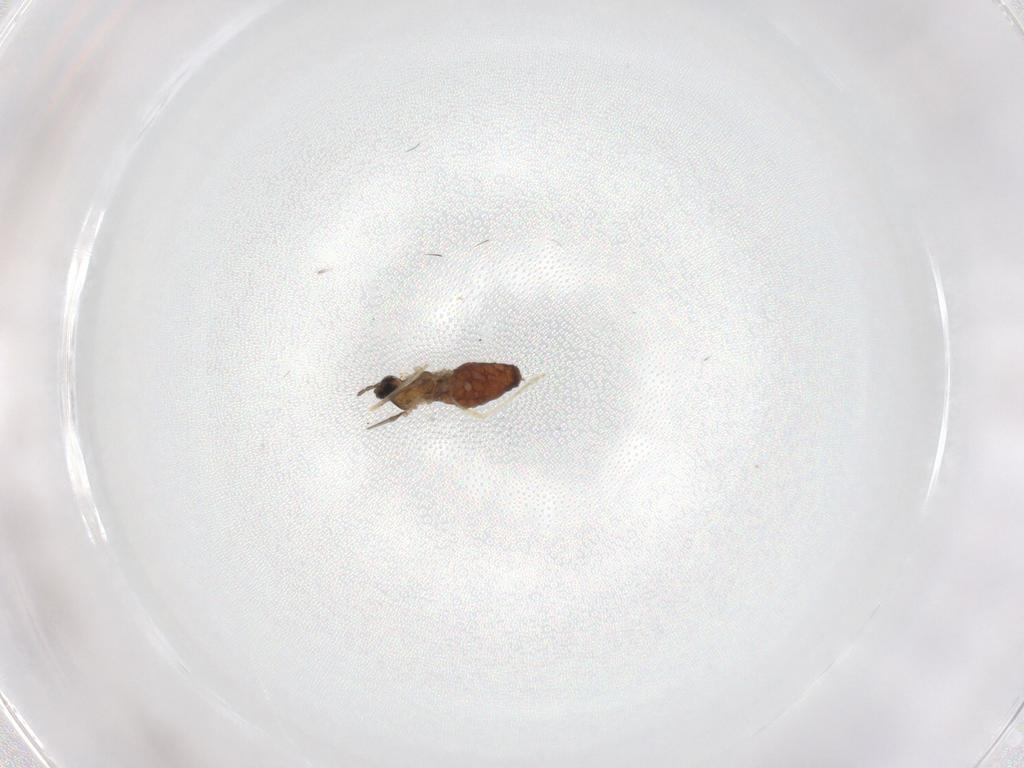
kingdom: Animalia
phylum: Arthropoda
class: Insecta
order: Diptera
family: Cecidomyiidae
